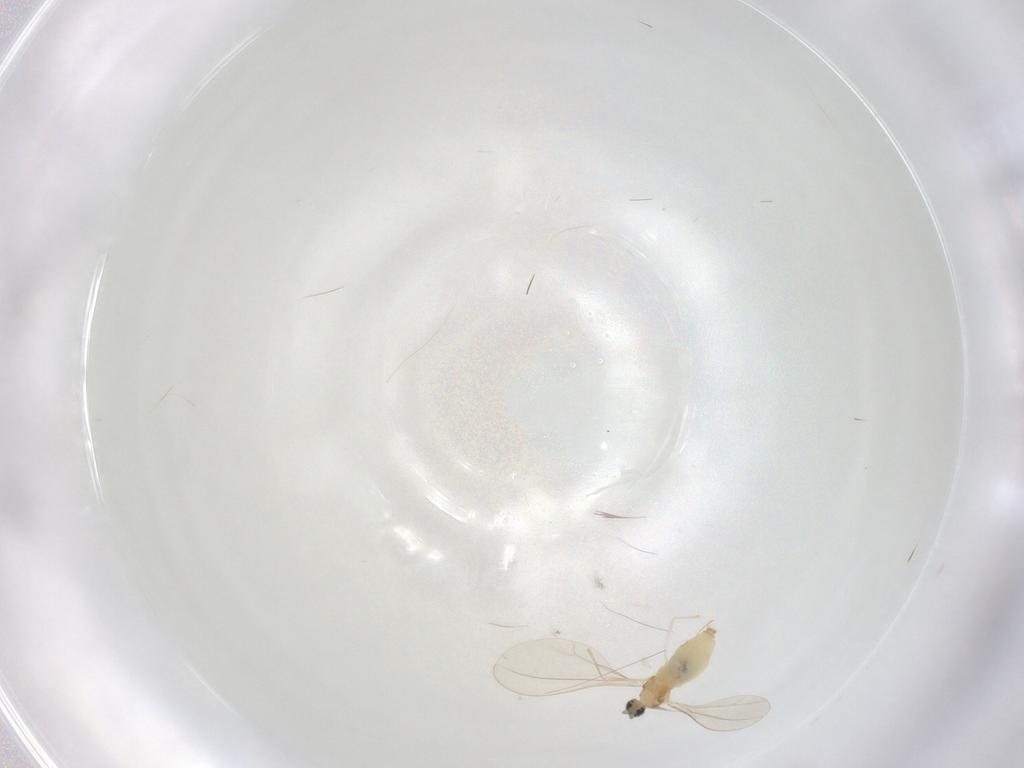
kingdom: Animalia
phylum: Arthropoda
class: Insecta
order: Diptera
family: Cecidomyiidae
